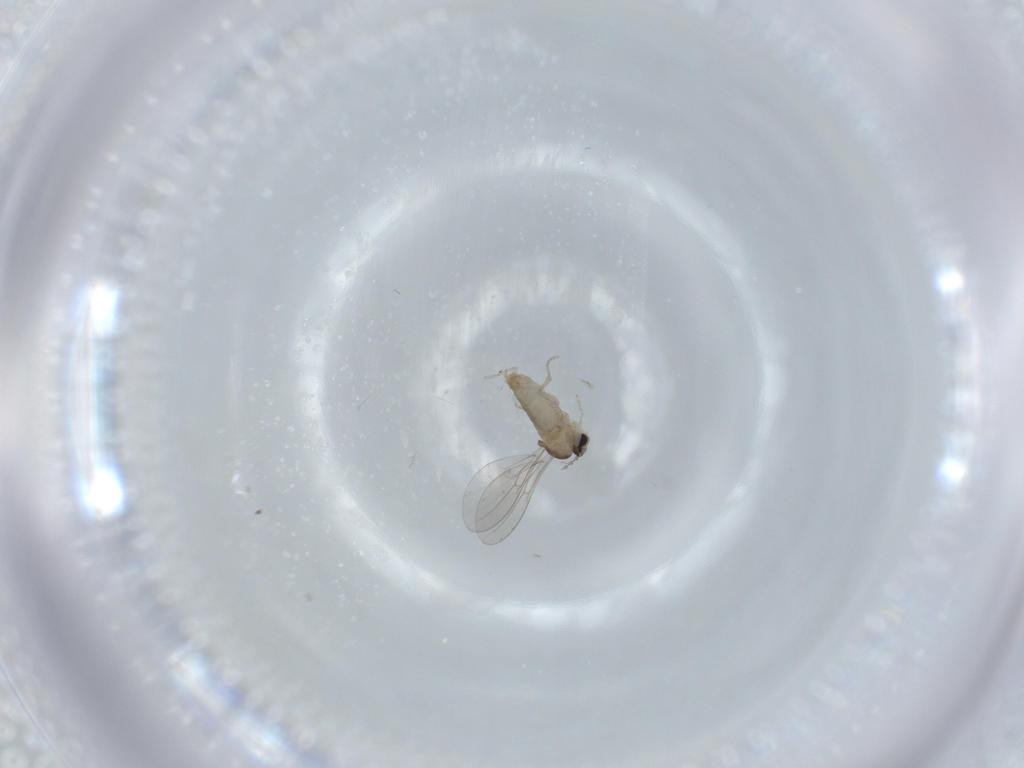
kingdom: Animalia
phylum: Arthropoda
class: Insecta
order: Diptera
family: Cecidomyiidae
